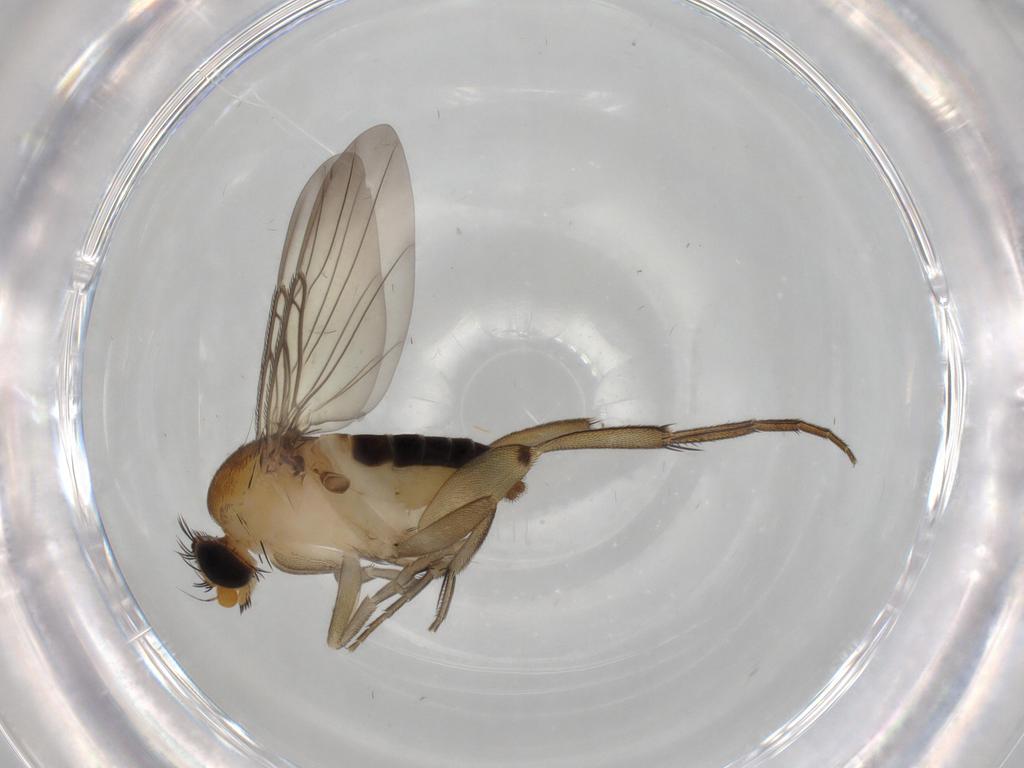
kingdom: Animalia
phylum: Arthropoda
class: Insecta
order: Diptera
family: Phoridae
